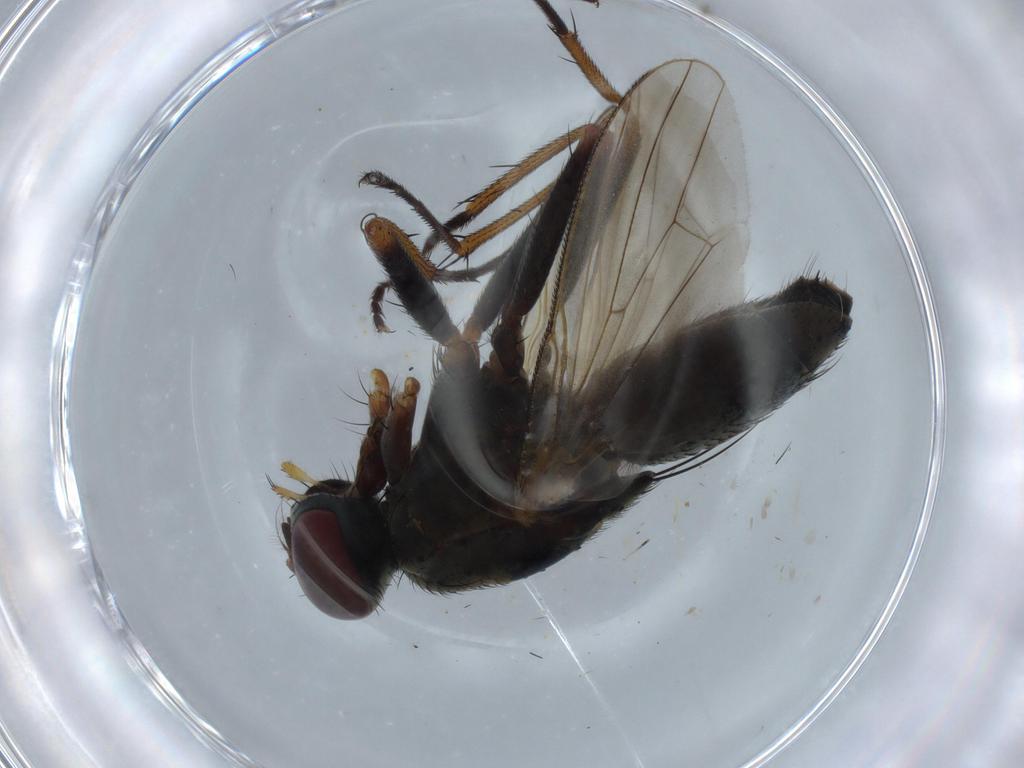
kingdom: Animalia
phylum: Arthropoda
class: Insecta
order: Diptera
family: Muscidae
